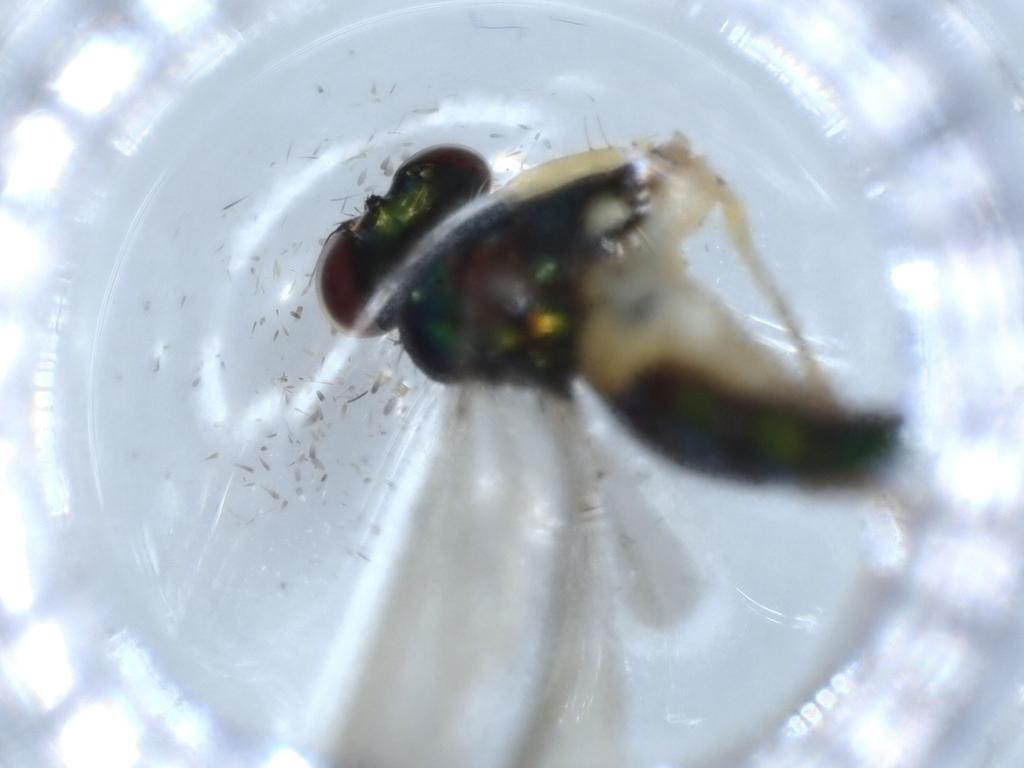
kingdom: Animalia
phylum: Arthropoda
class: Insecta
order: Diptera
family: Dolichopodidae
